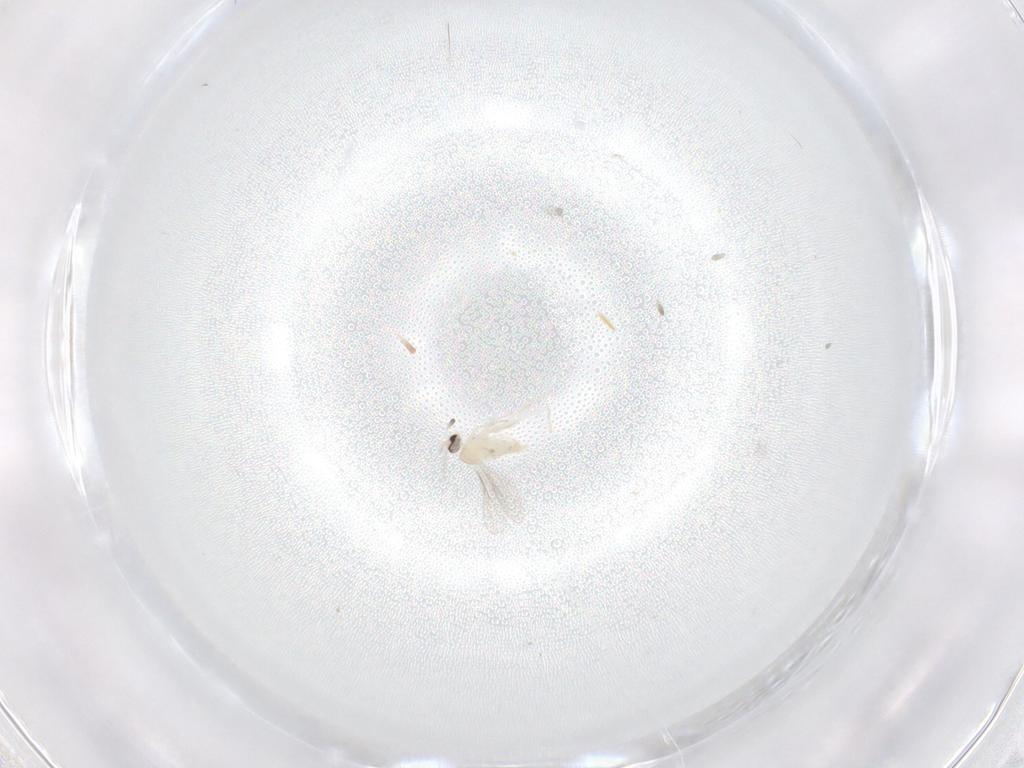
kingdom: Animalia
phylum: Arthropoda
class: Insecta
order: Diptera
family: Cecidomyiidae
